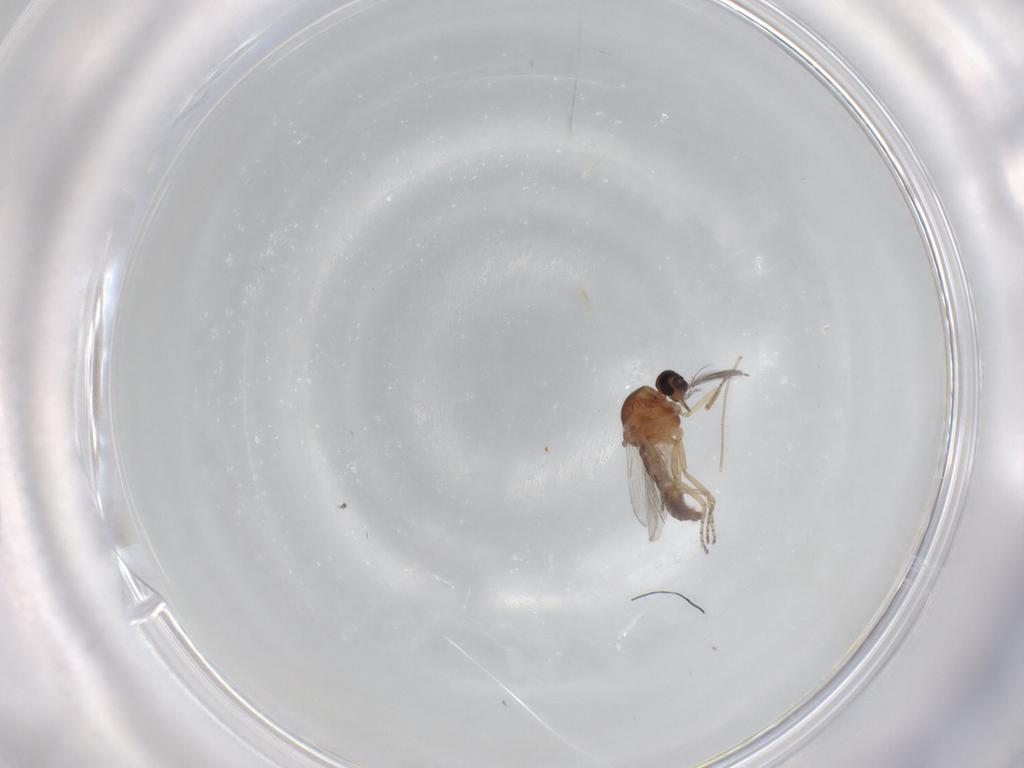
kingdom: Animalia
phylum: Arthropoda
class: Insecta
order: Diptera
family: Ceratopogonidae
